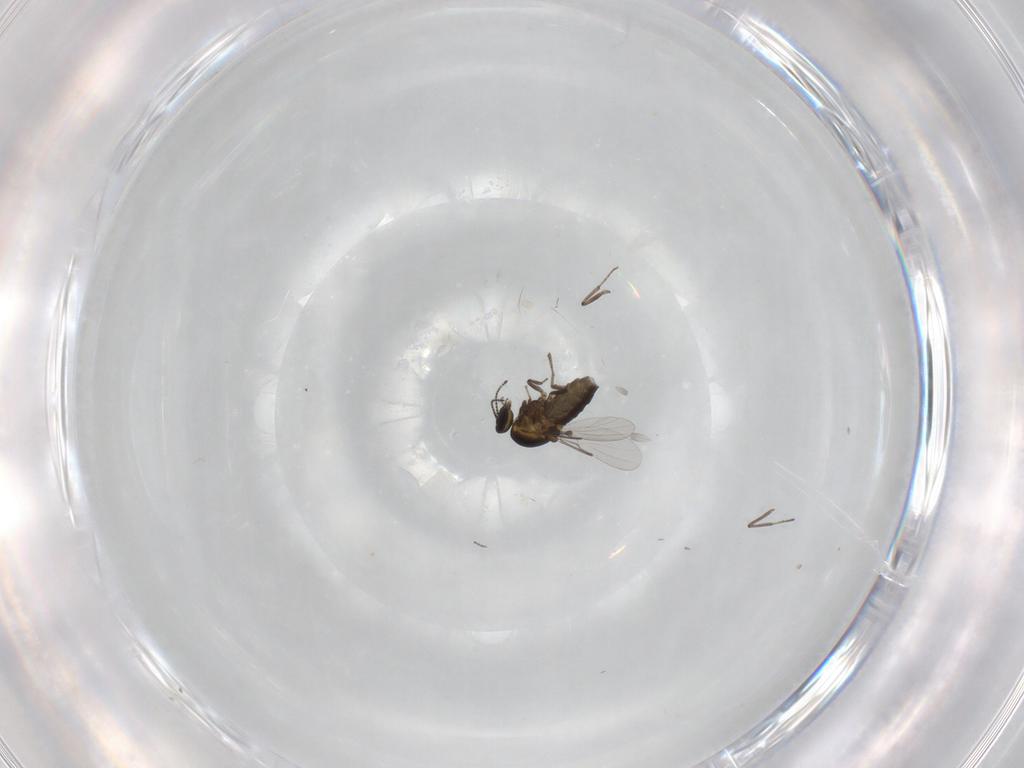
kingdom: Animalia
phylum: Arthropoda
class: Insecta
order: Diptera
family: Ceratopogonidae
